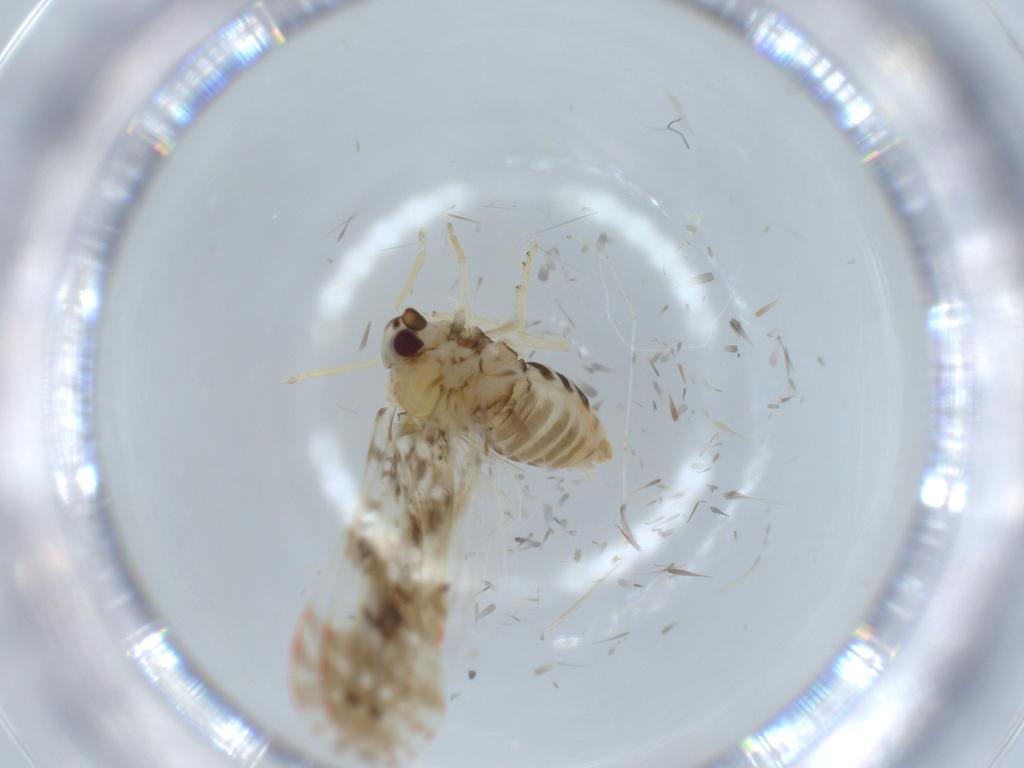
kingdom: Animalia
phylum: Arthropoda
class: Insecta
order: Hemiptera
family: Derbidae
